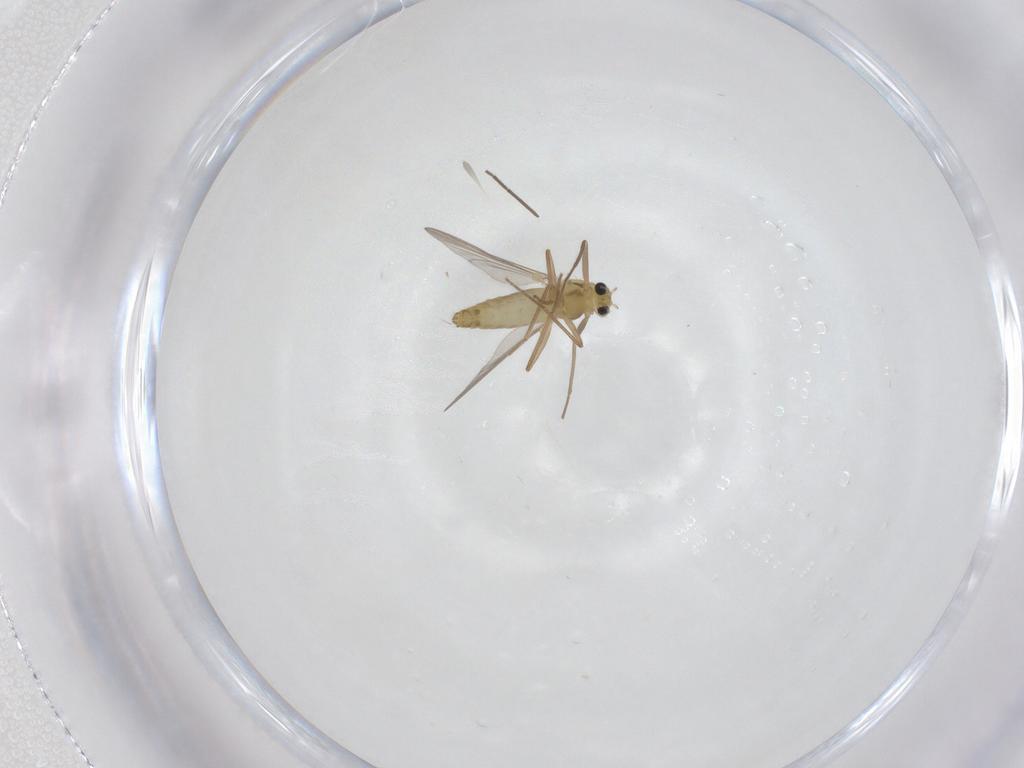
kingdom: Animalia
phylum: Arthropoda
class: Insecta
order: Diptera
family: Chironomidae
